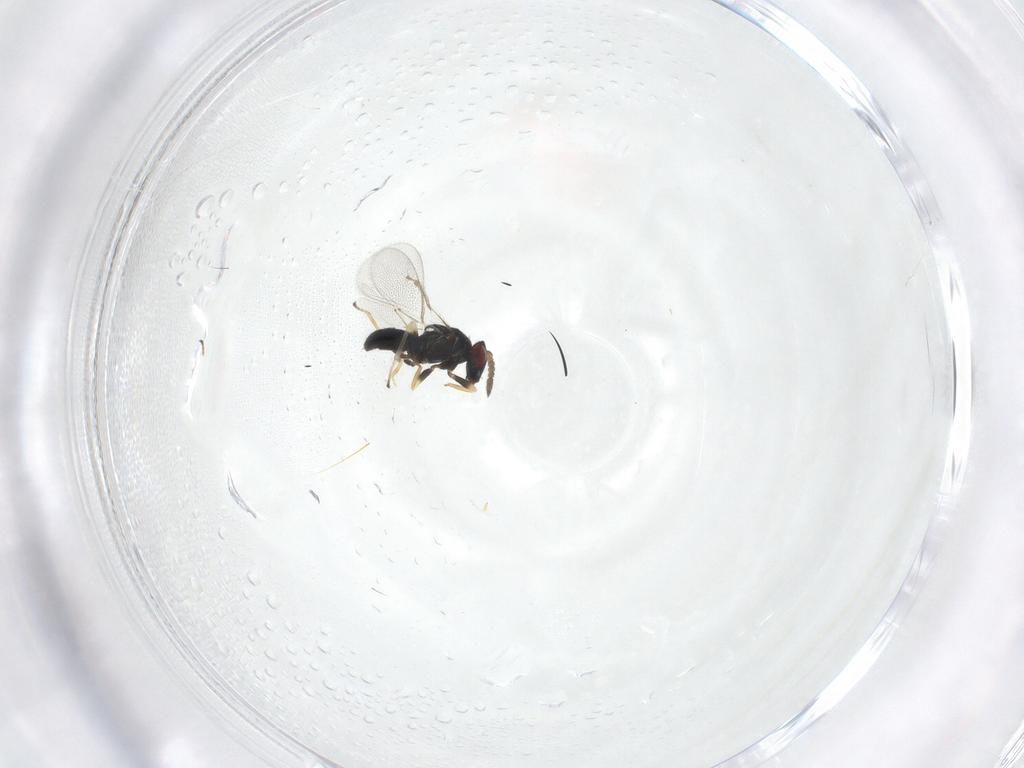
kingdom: Animalia
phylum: Arthropoda
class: Insecta
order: Hymenoptera
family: Eulophidae
